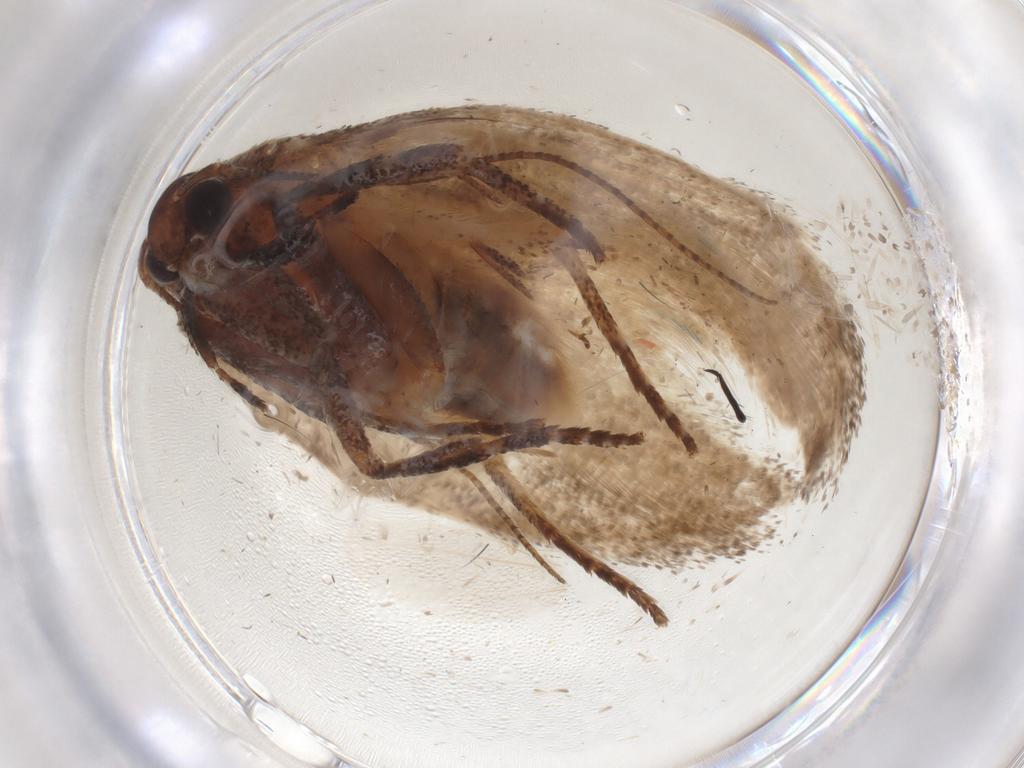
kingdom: Animalia
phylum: Arthropoda
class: Insecta
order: Lepidoptera
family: Cosmopterigidae
